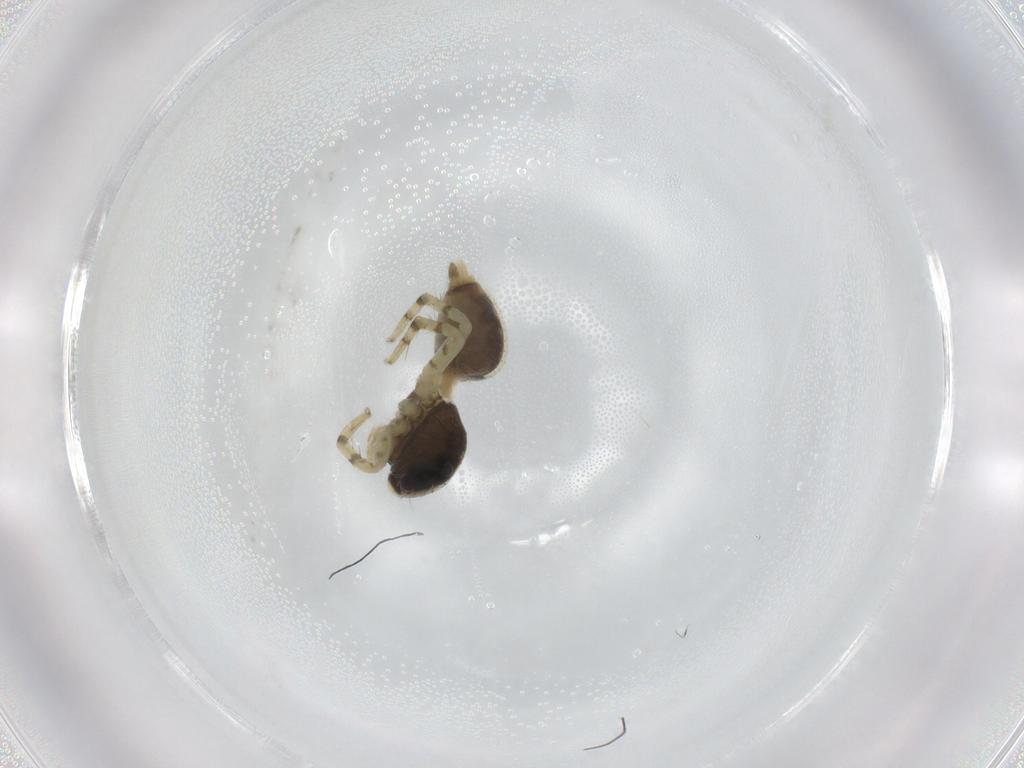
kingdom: Animalia
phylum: Arthropoda
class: Arachnida
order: Araneae
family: Salticidae
